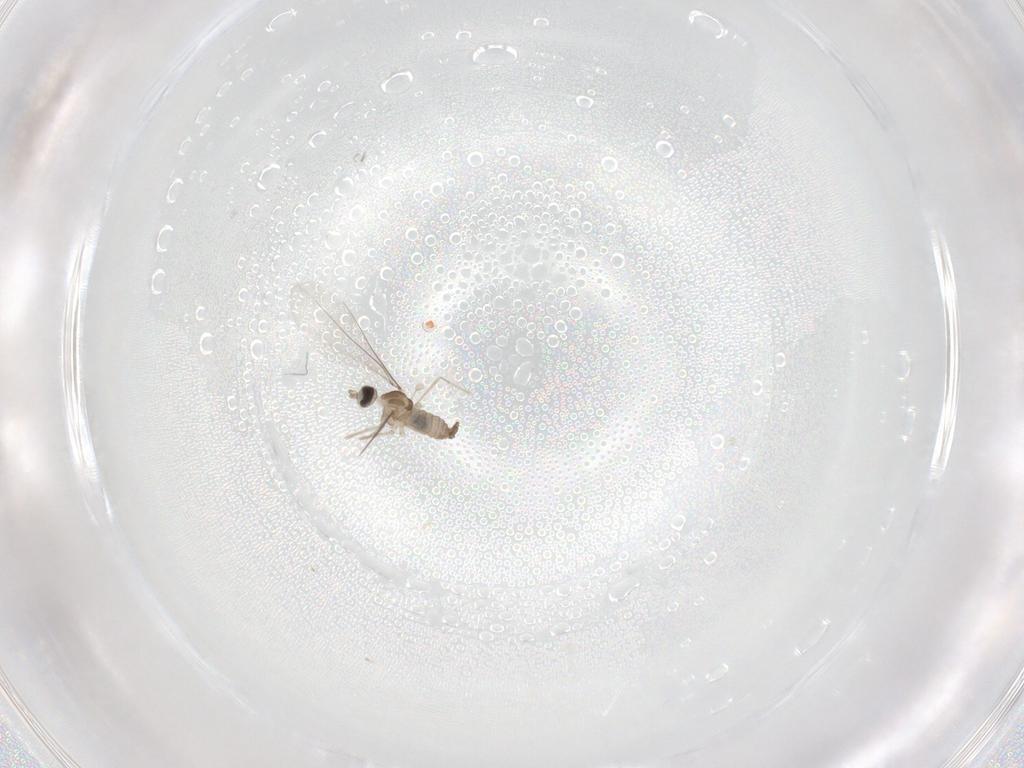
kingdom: Animalia
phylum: Arthropoda
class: Insecta
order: Diptera
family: Cecidomyiidae
